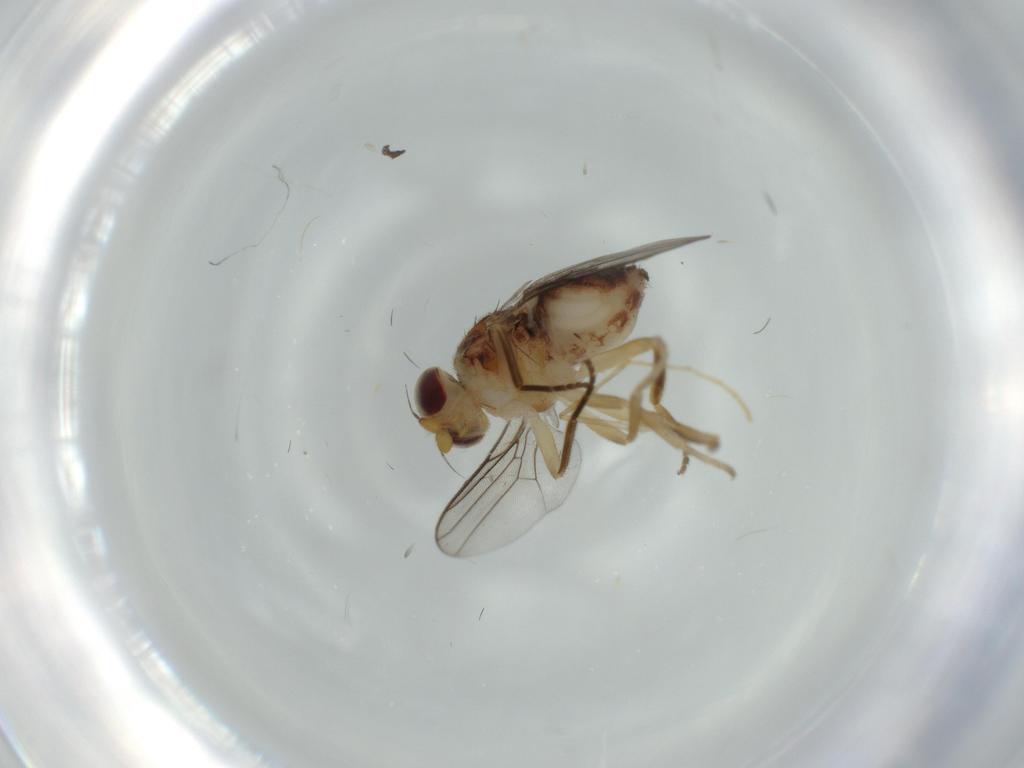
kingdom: Animalia
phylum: Arthropoda
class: Insecta
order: Diptera
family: Chloropidae
